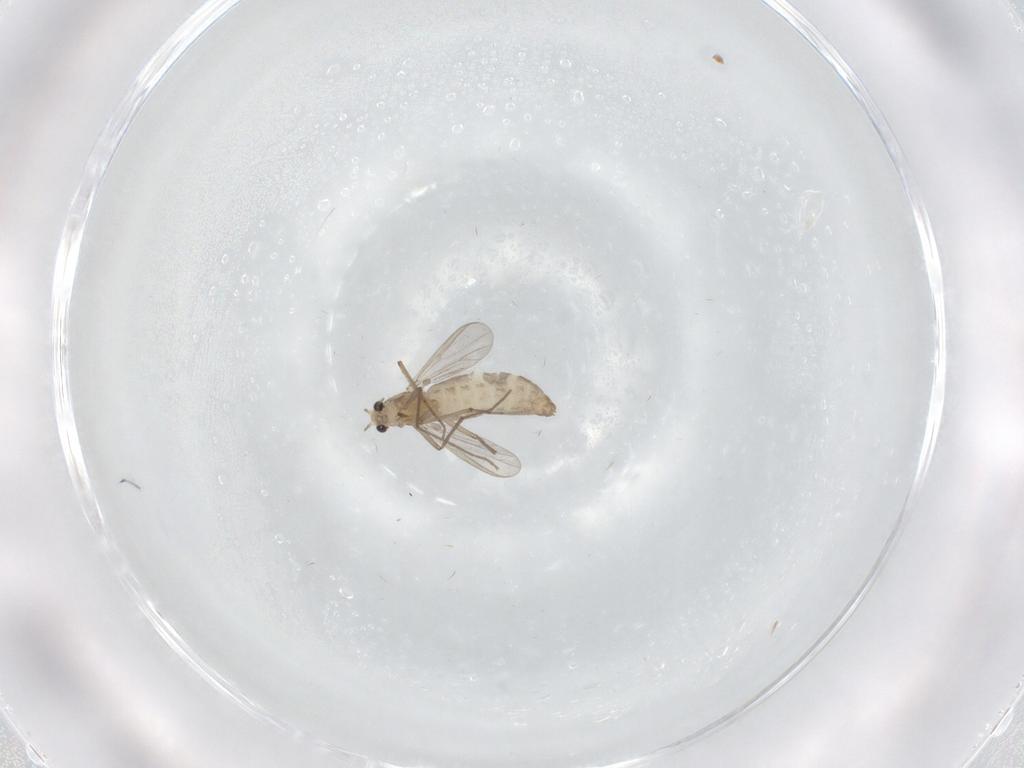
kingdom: Animalia
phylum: Arthropoda
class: Insecta
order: Diptera
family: Chironomidae
